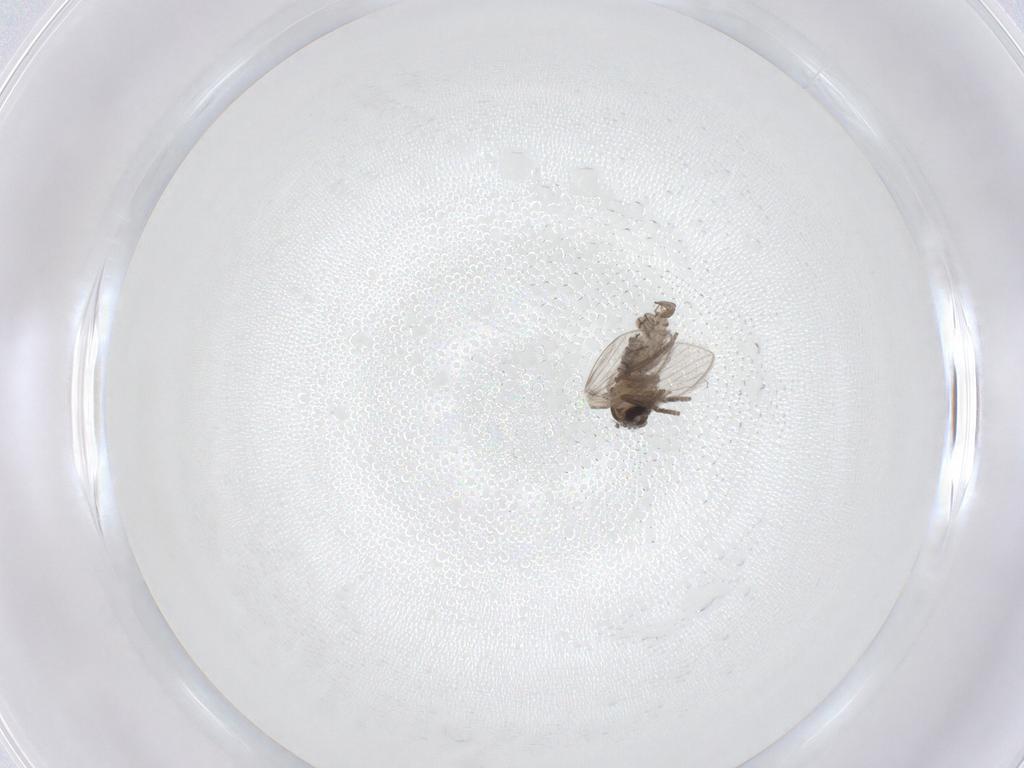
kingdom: Animalia
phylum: Arthropoda
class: Insecta
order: Diptera
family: Psychodidae
